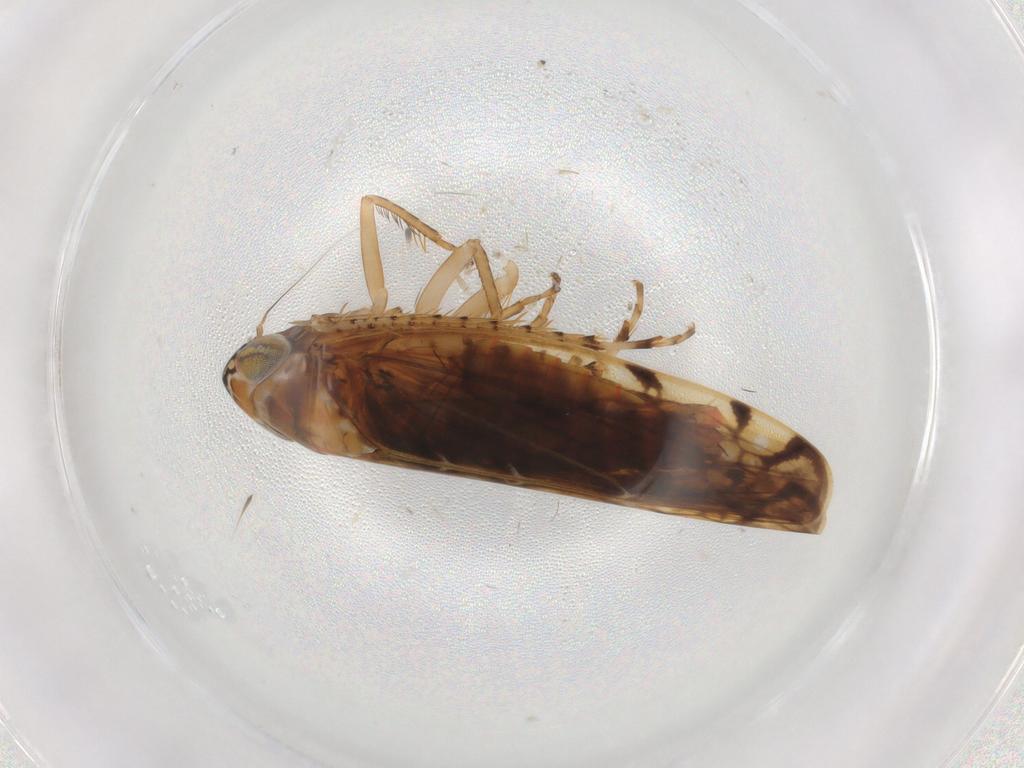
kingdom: Animalia
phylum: Arthropoda
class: Insecta
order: Hemiptera
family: Cicadellidae
